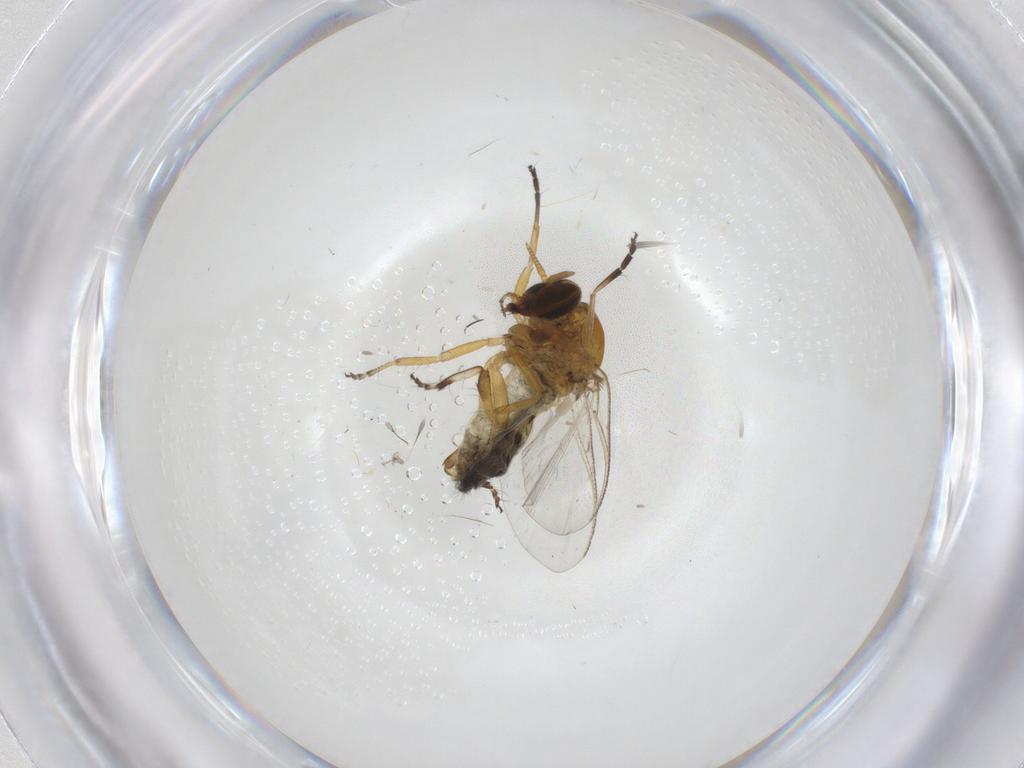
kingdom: Animalia
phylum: Arthropoda
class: Insecta
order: Diptera
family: Simuliidae
